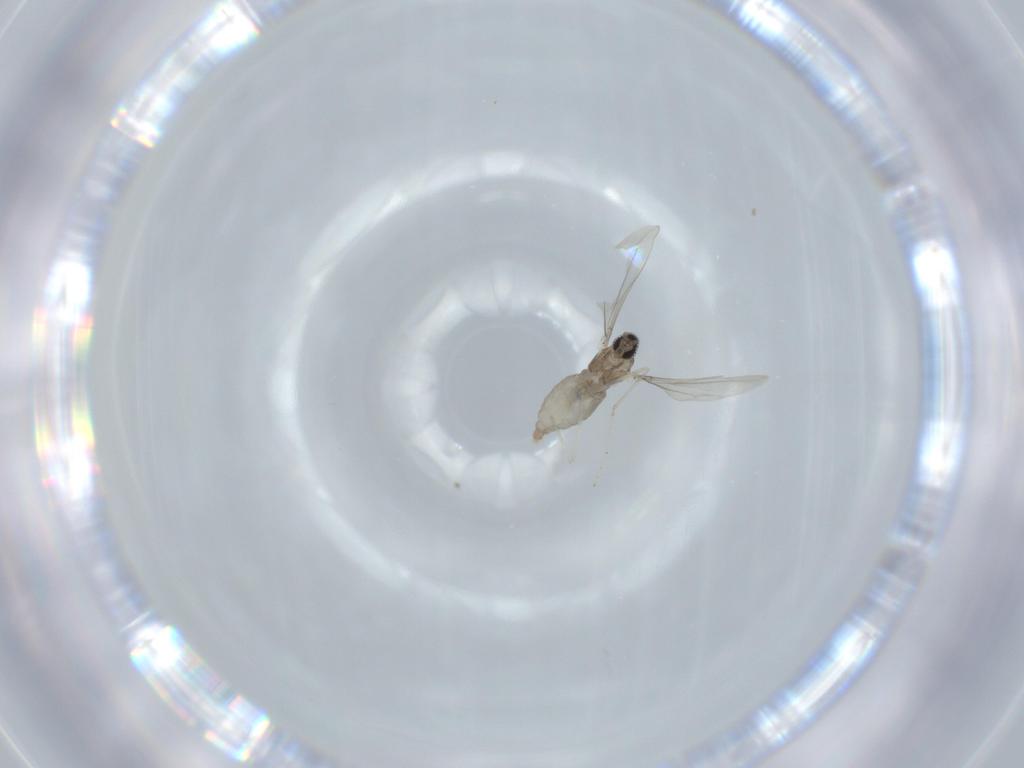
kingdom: Animalia
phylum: Arthropoda
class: Insecta
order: Diptera
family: Cecidomyiidae
